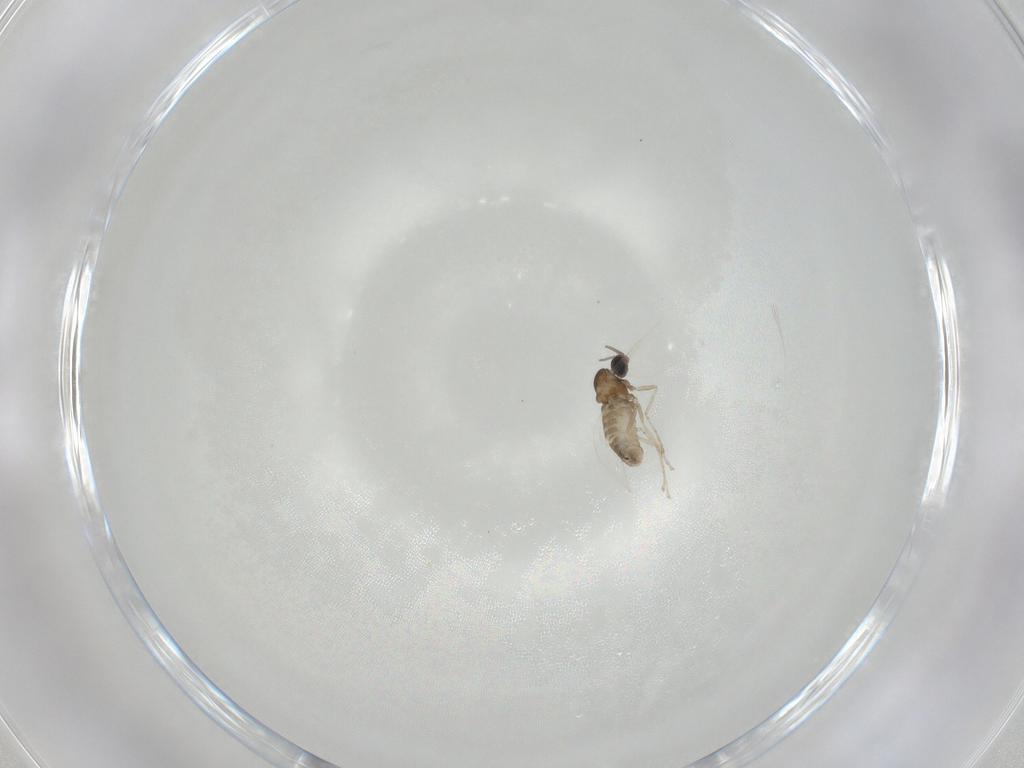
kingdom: Animalia
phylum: Arthropoda
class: Insecta
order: Diptera
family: Cecidomyiidae
